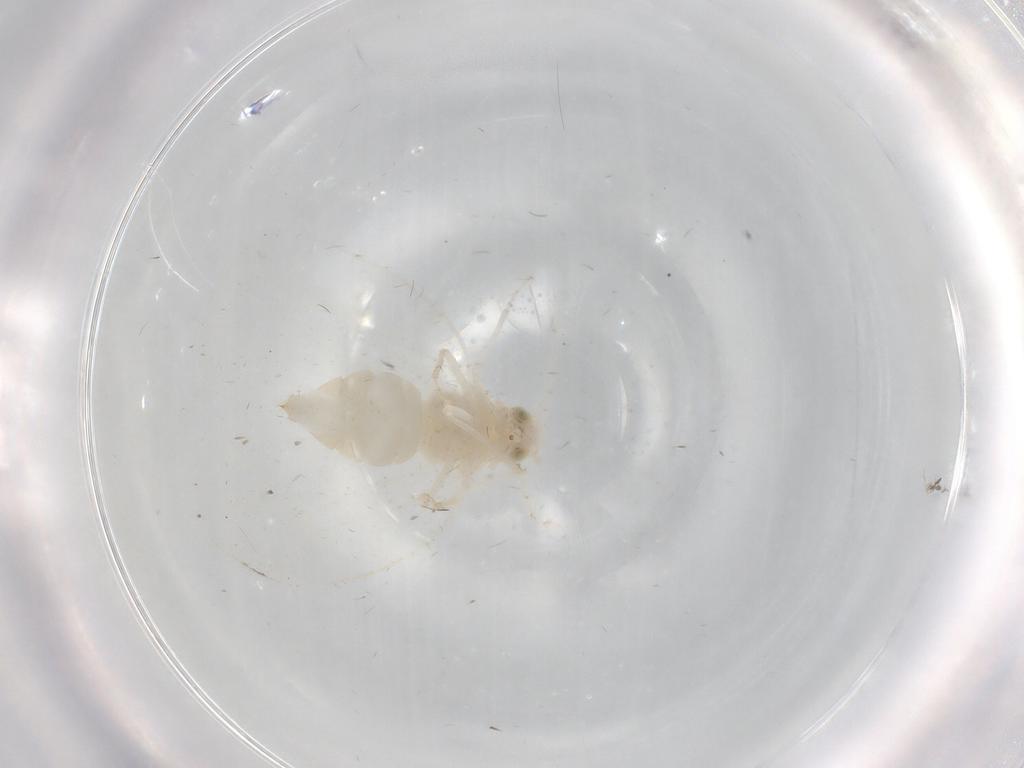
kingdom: Animalia
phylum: Arthropoda
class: Insecta
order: Hemiptera
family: Aleyrodidae
